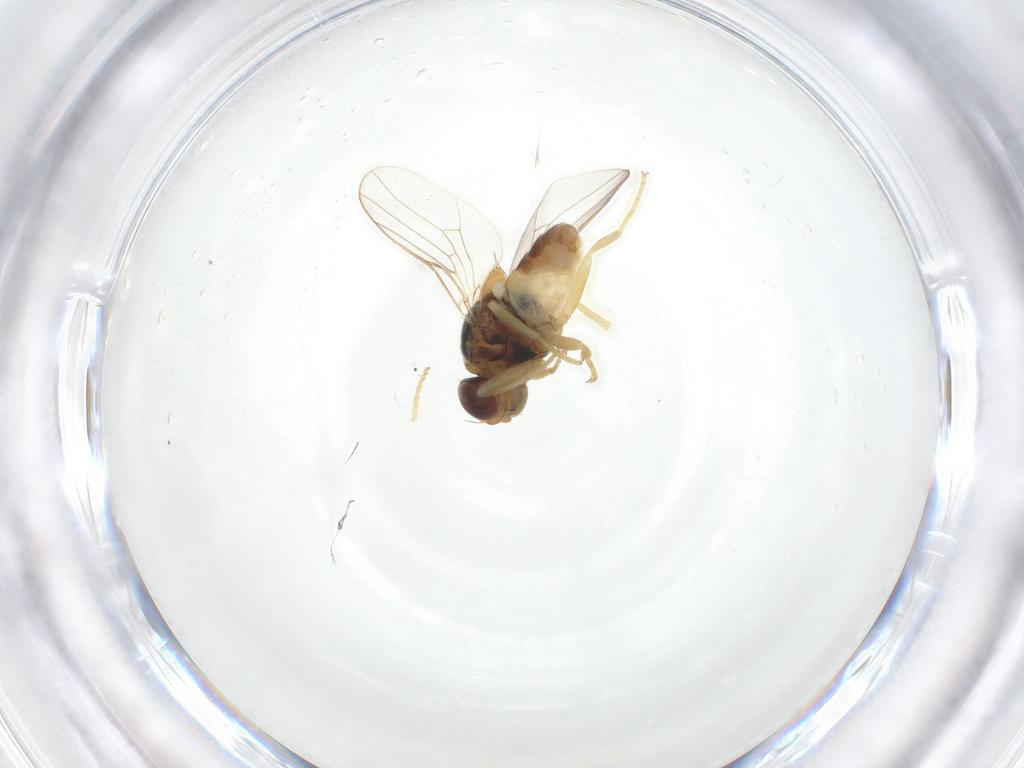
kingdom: Animalia
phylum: Arthropoda
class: Insecta
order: Diptera
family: Chloropidae
